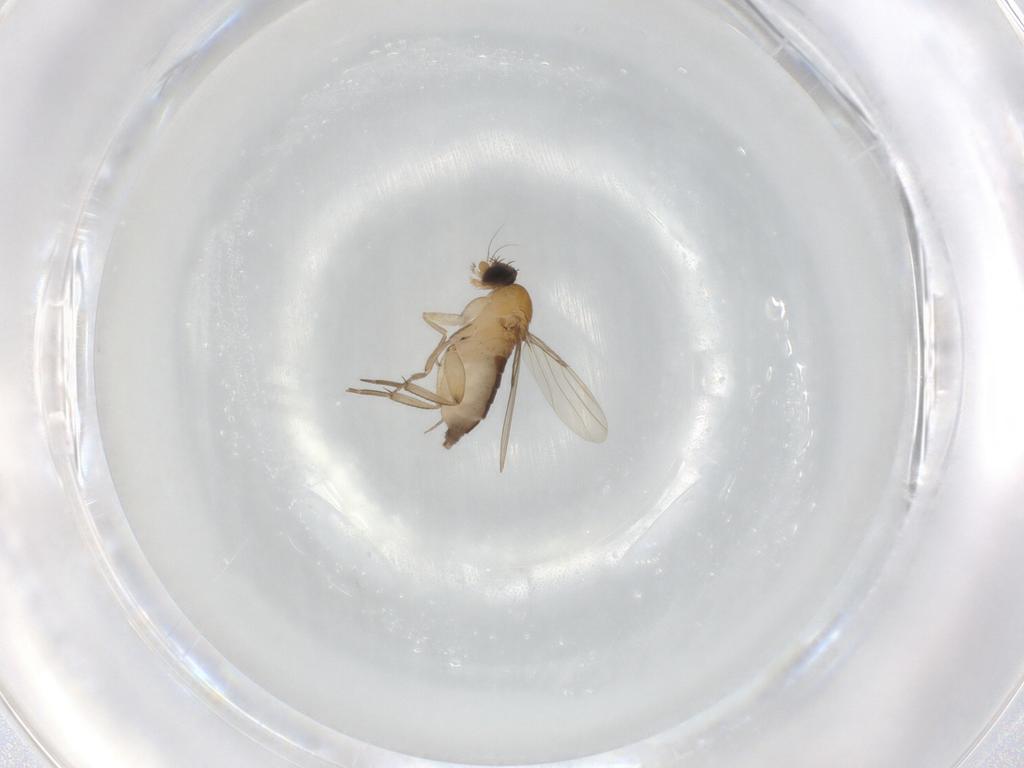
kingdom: Animalia
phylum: Arthropoda
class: Insecta
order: Diptera
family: Phoridae
